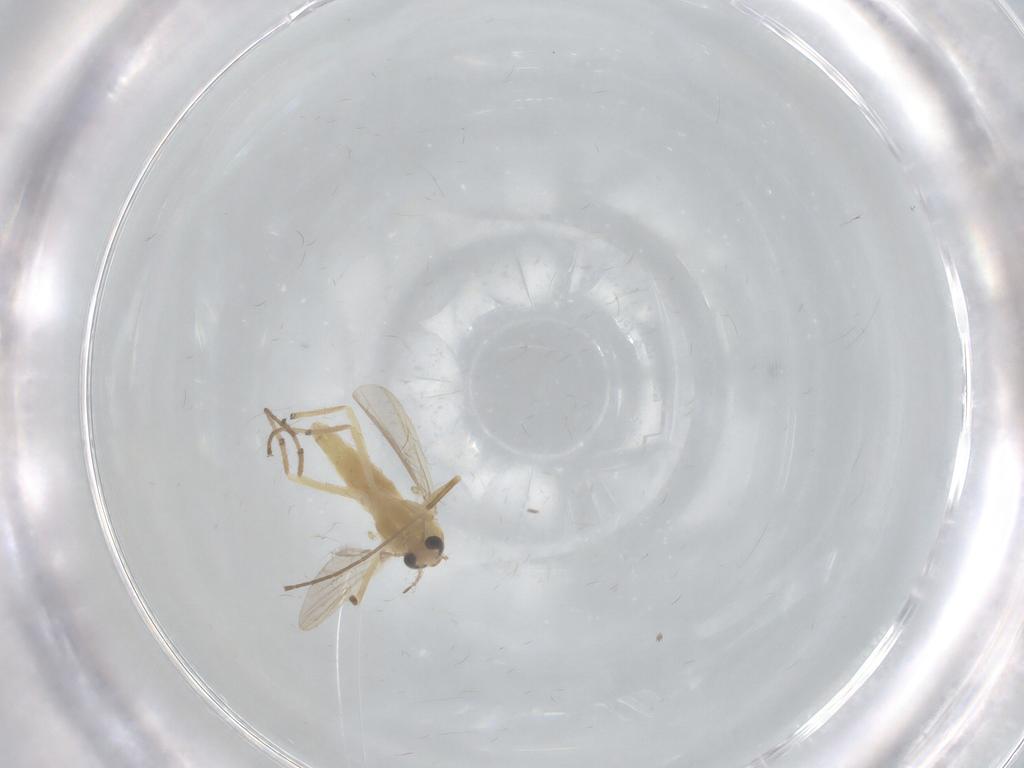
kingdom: Animalia
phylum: Arthropoda
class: Insecta
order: Diptera
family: Chironomidae
